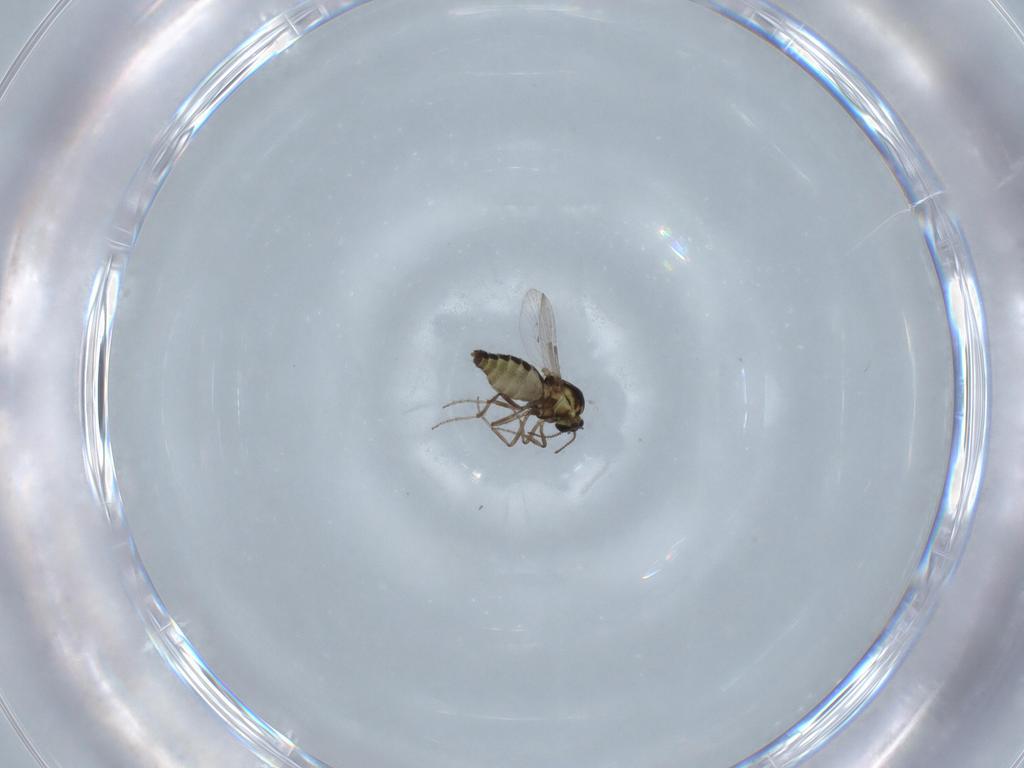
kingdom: Animalia
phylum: Arthropoda
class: Insecta
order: Diptera
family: Ceratopogonidae
